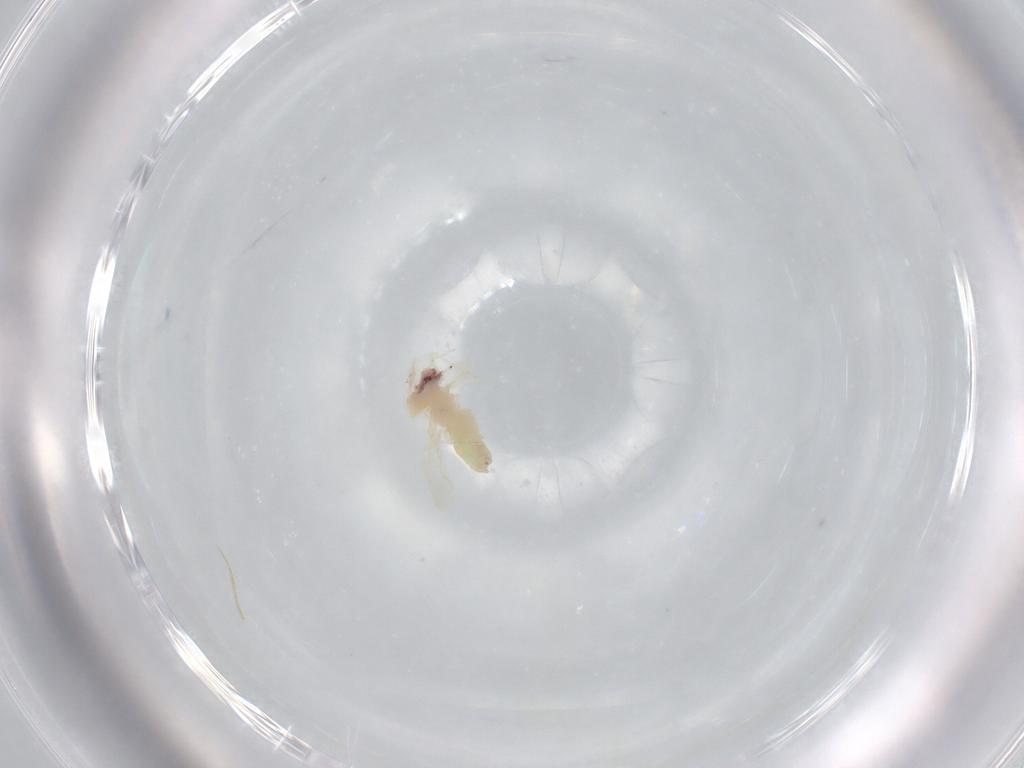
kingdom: Animalia
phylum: Arthropoda
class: Insecta
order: Hemiptera
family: Aleyrodidae
